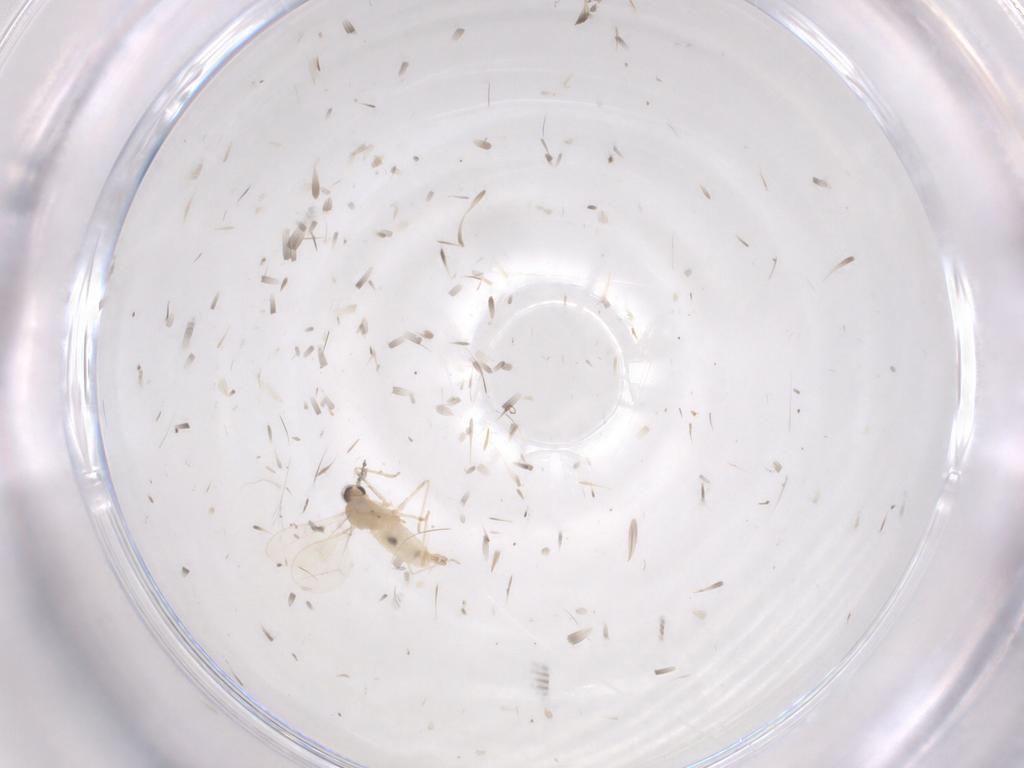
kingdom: Animalia
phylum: Arthropoda
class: Insecta
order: Diptera
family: Cecidomyiidae
